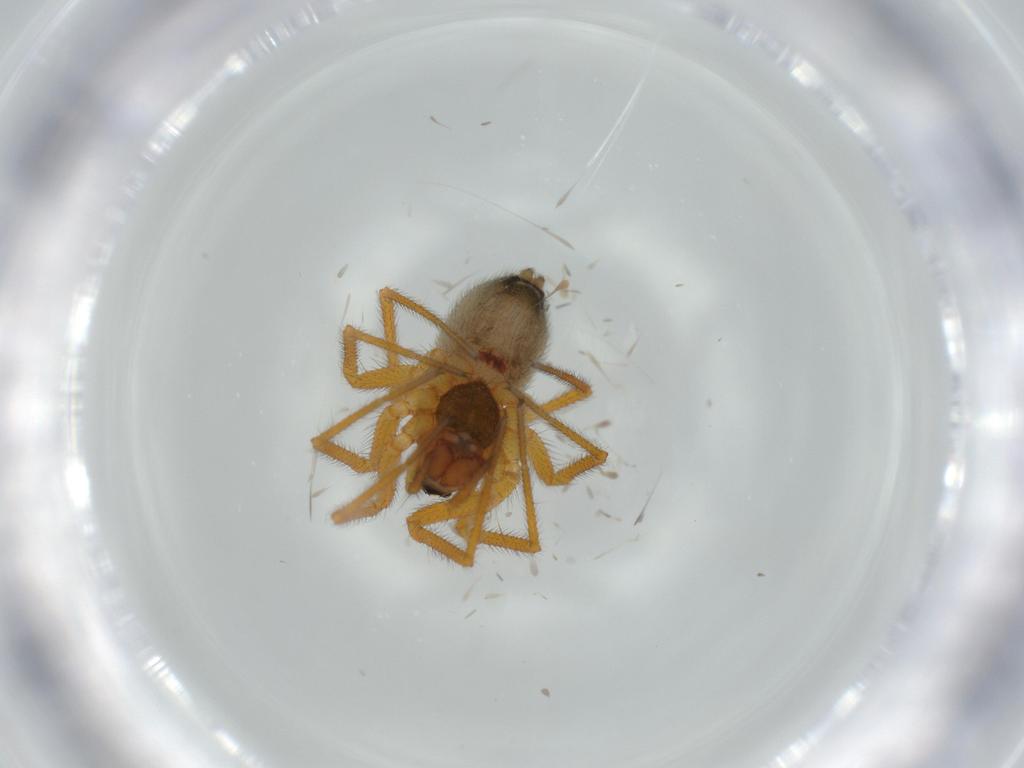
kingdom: Animalia
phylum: Arthropoda
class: Arachnida
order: Araneae
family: Linyphiidae
